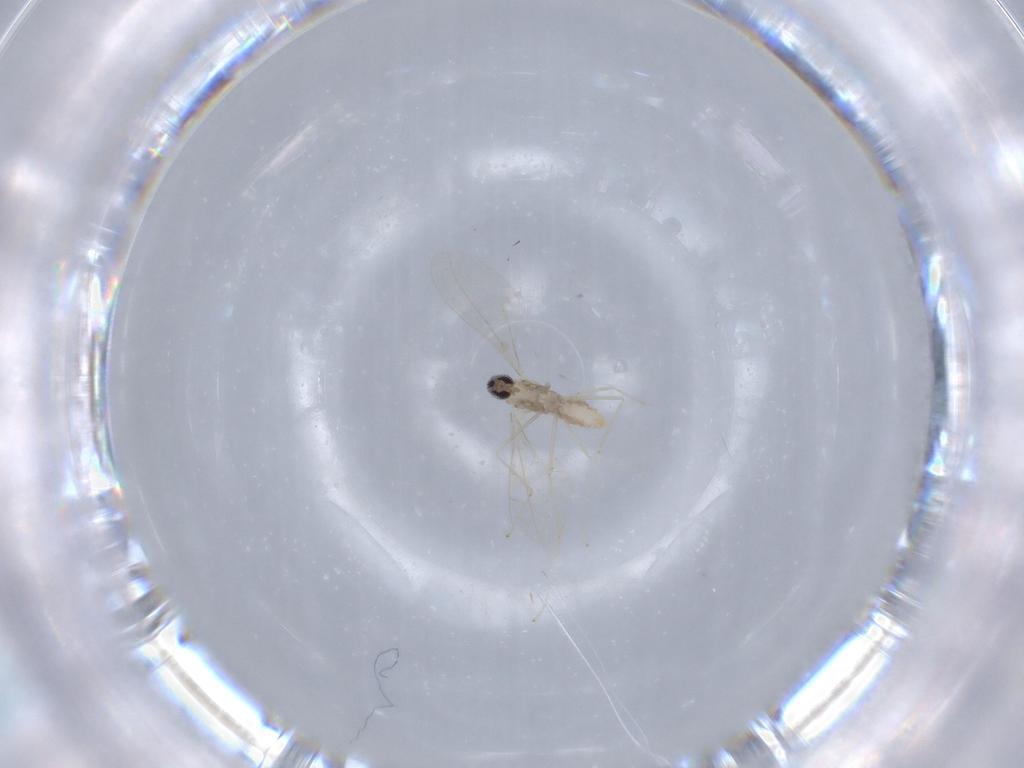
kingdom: Animalia
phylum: Arthropoda
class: Insecta
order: Diptera
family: Cecidomyiidae
